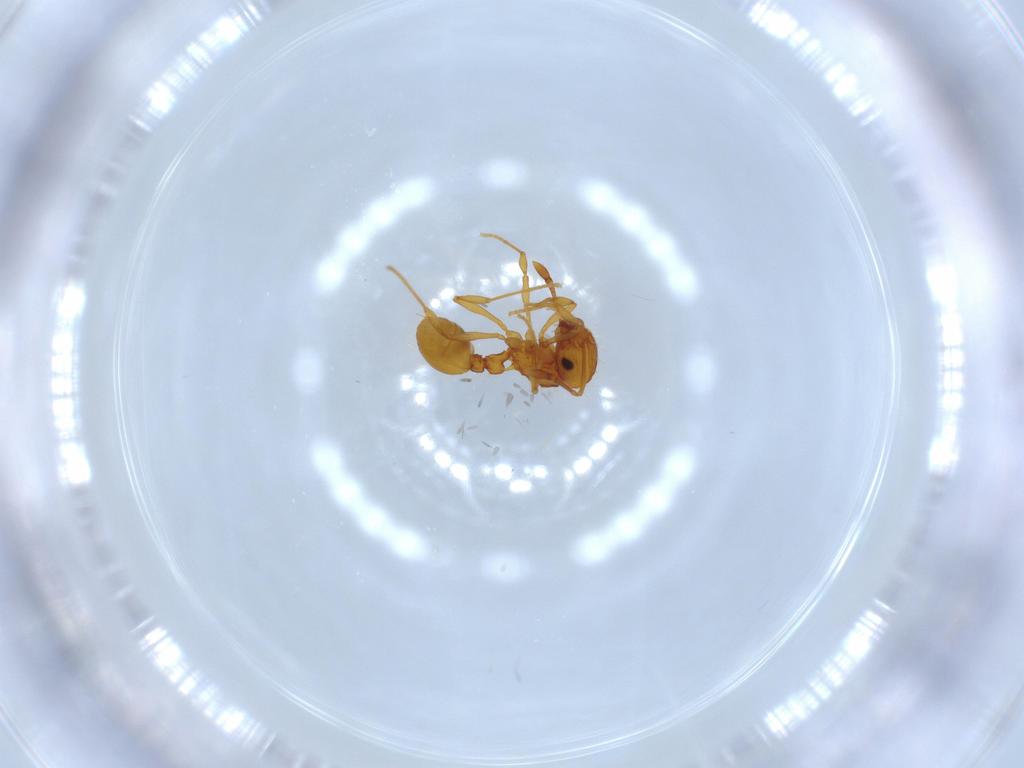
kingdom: Animalia
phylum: Arthropoda
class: Insecta
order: Hymenoptera
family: Formicidae
